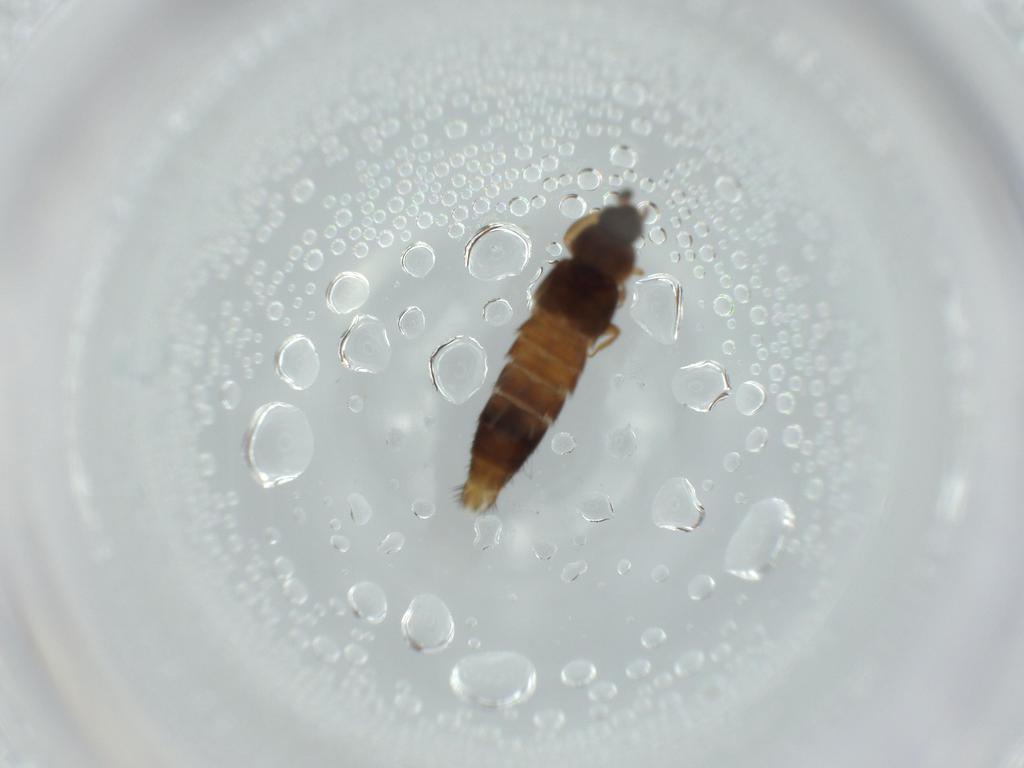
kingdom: Animalia
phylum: Arthropoda
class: Insecta
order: Coleoptera
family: Staphylinidae
